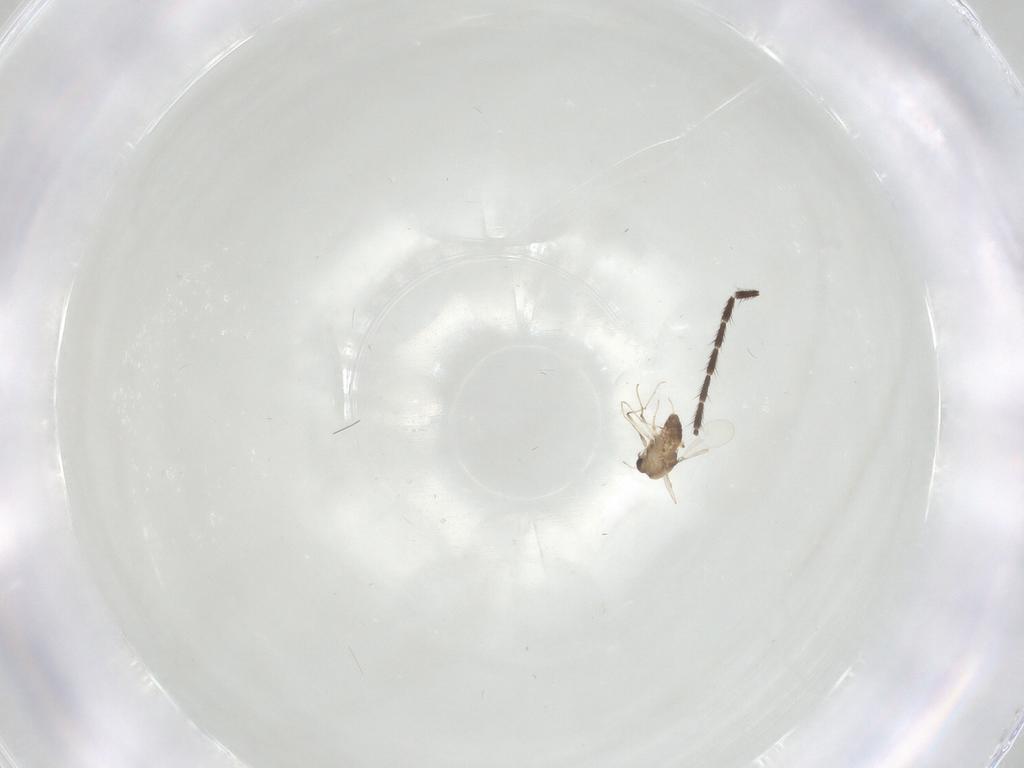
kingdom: Animalia
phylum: Arthropoda
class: Insecta
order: Diptera
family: Chironomidae
